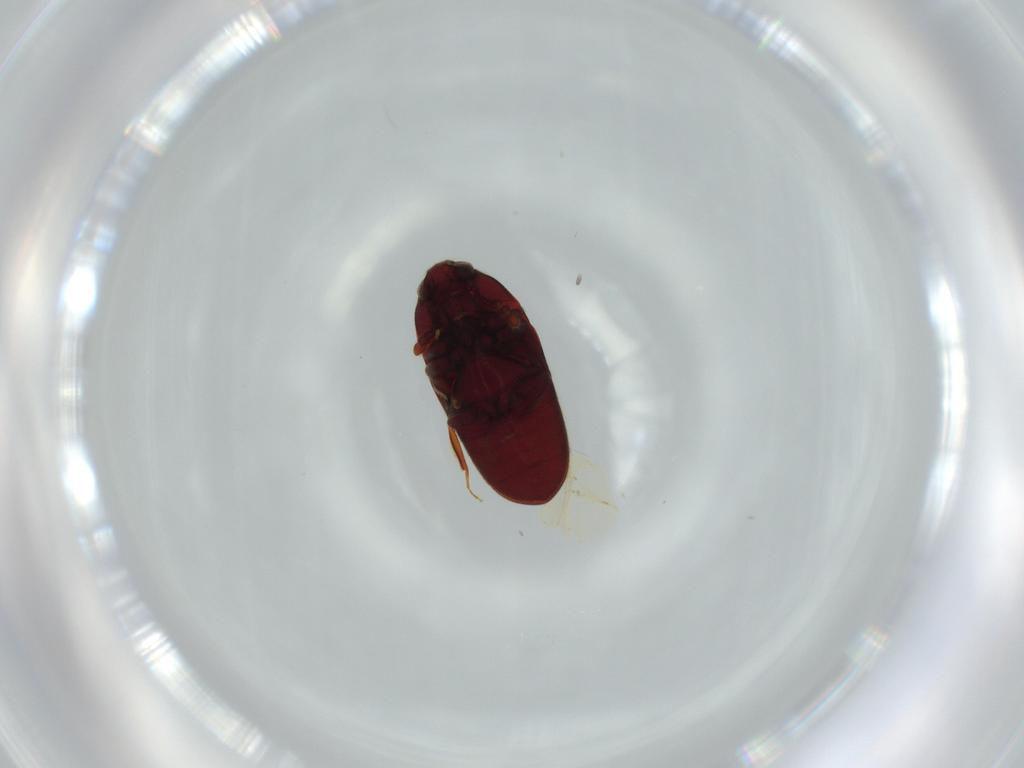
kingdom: Animalia
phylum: Arthropoda
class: Insecta
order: Coleoptera
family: Throscidae
